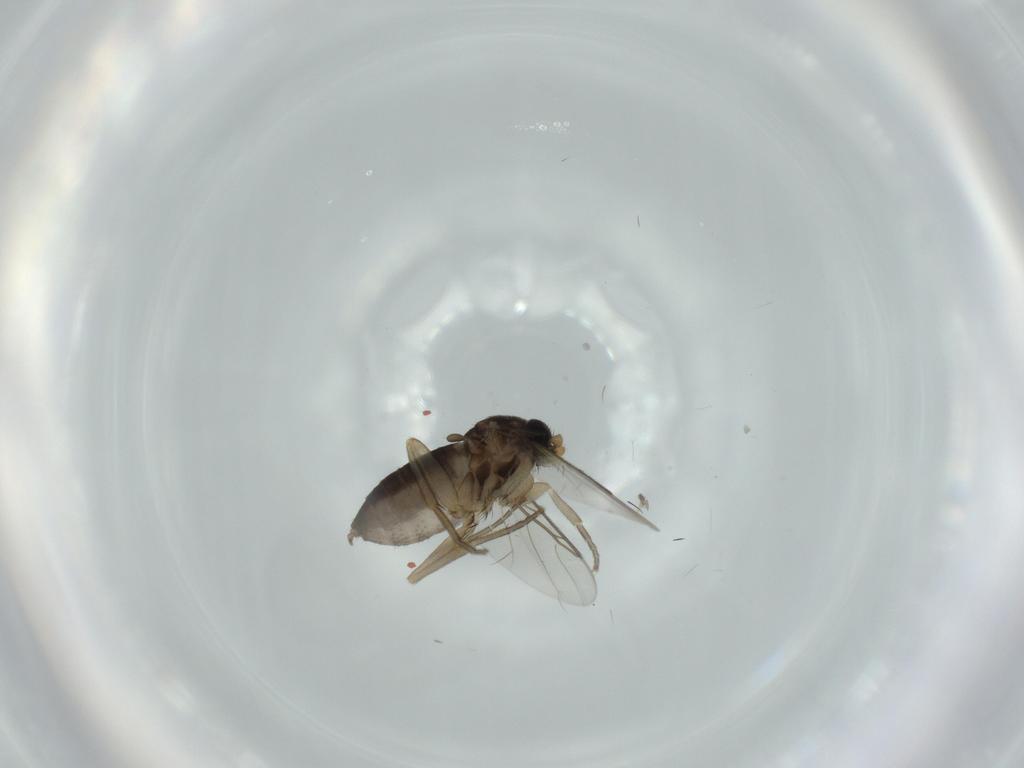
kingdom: Animalia
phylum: Arthropoda
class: Insecta
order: Diptera
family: Phoridae
